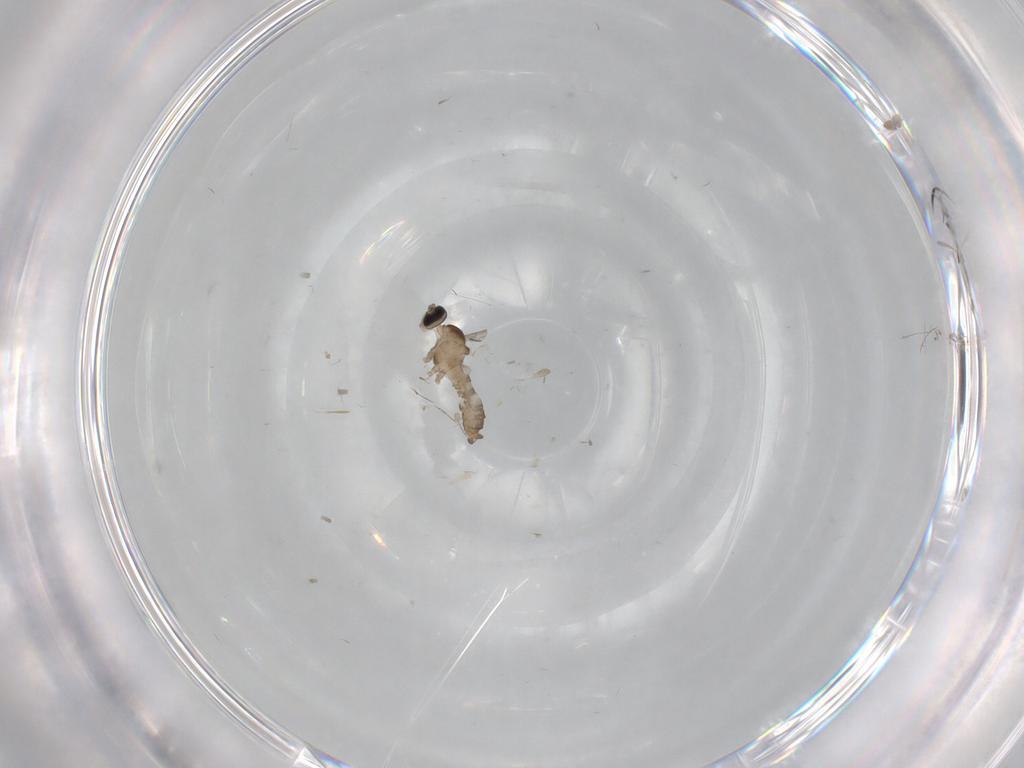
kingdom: Animalia
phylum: Arthropoda
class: Insecta
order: Diptera
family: Cecidomyiidae
